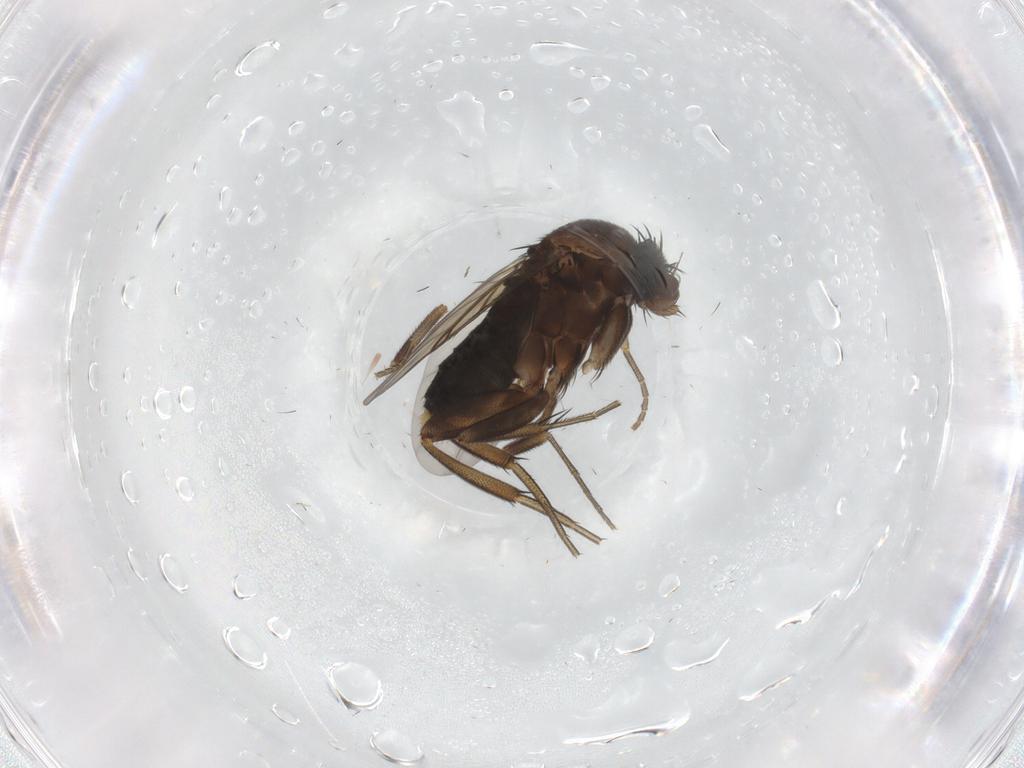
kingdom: Animalia
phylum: Arthropoda
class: Insecta
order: Diptera
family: Phoridae
